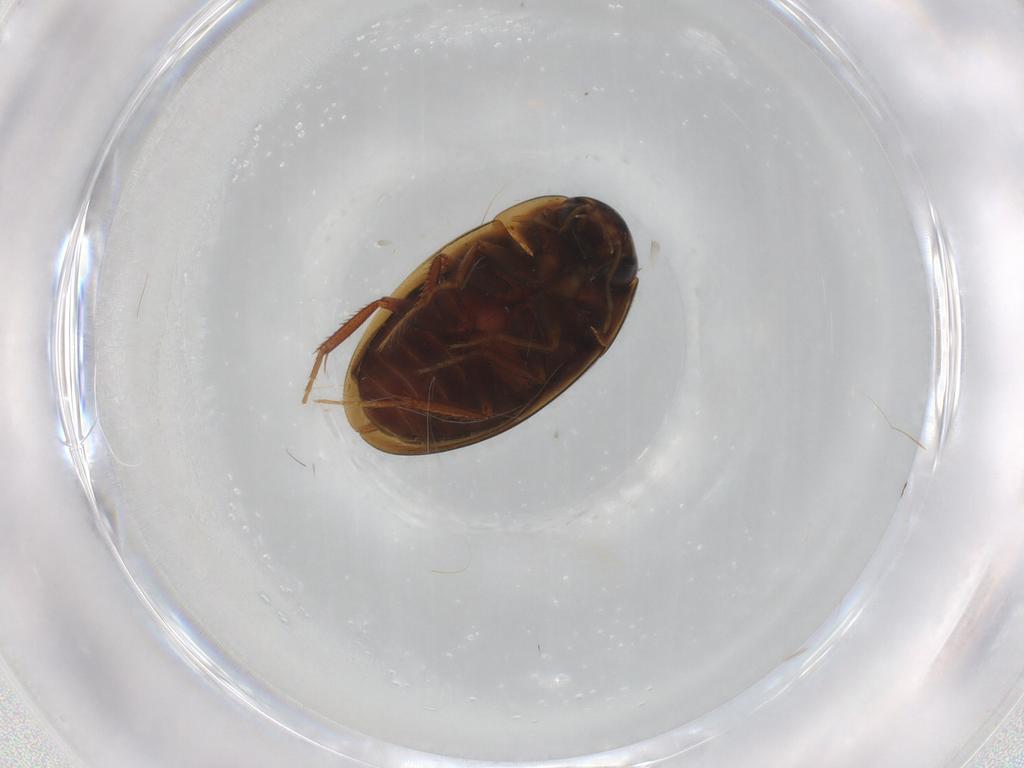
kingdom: Animalia
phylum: Arthropoda
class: Insecta
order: Coleoptera
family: Hydrophilidae
